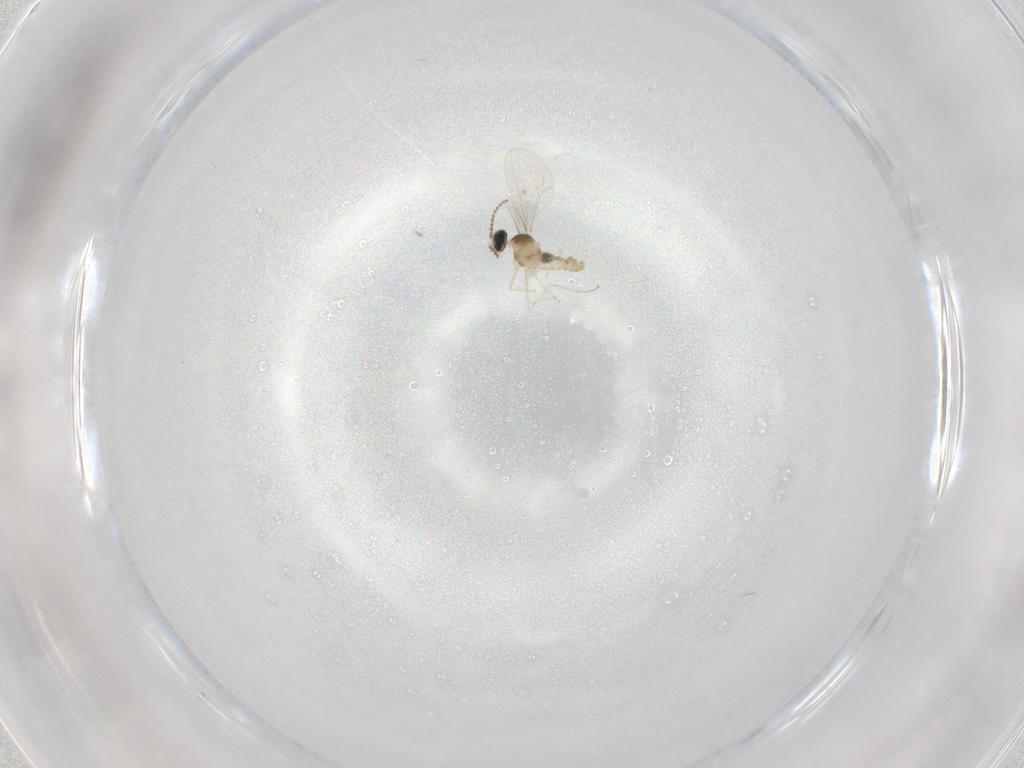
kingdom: Animalia
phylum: Arthropoda
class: Insecta
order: Diptera
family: Cecidomyiidae
